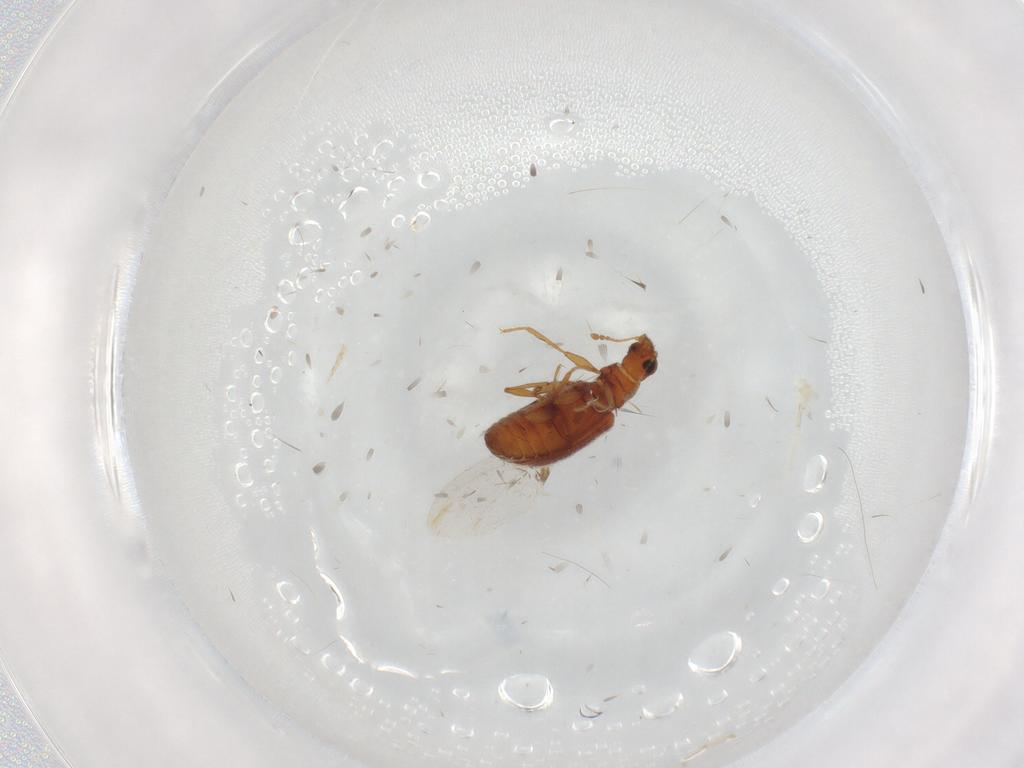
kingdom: Animalia
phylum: Arthropoda
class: Insecta
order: Coleoptera
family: Latridiidae
